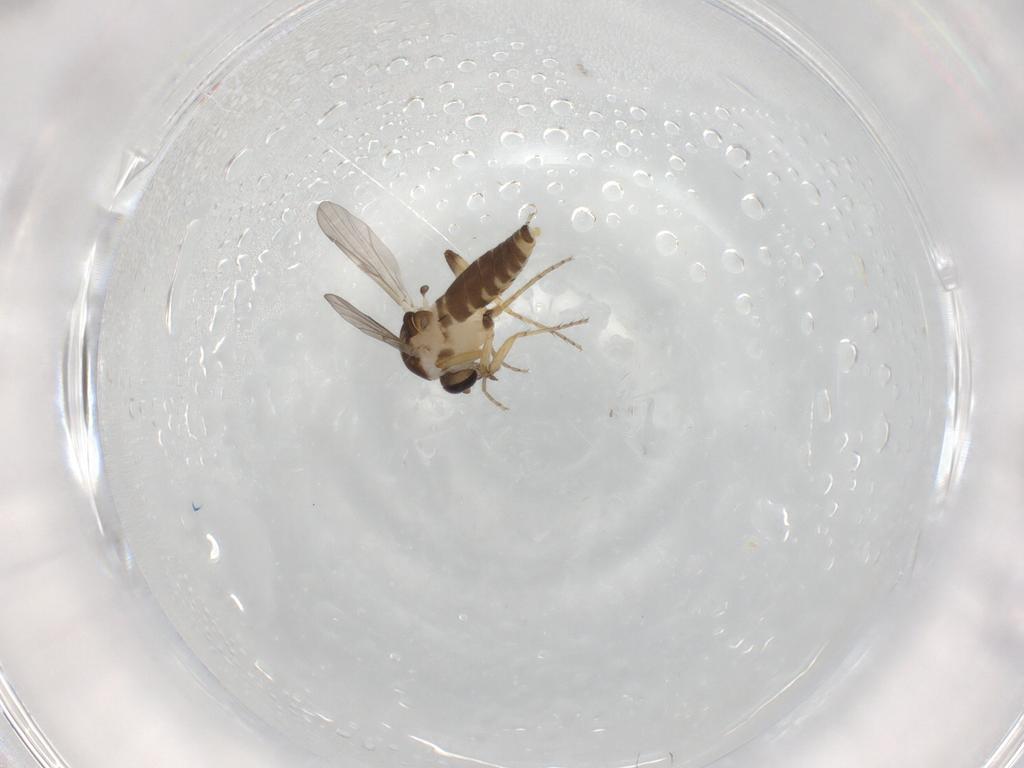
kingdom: Animalia
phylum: Arthropoda
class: Insecta
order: Diptera
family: Ceratopogonidae
